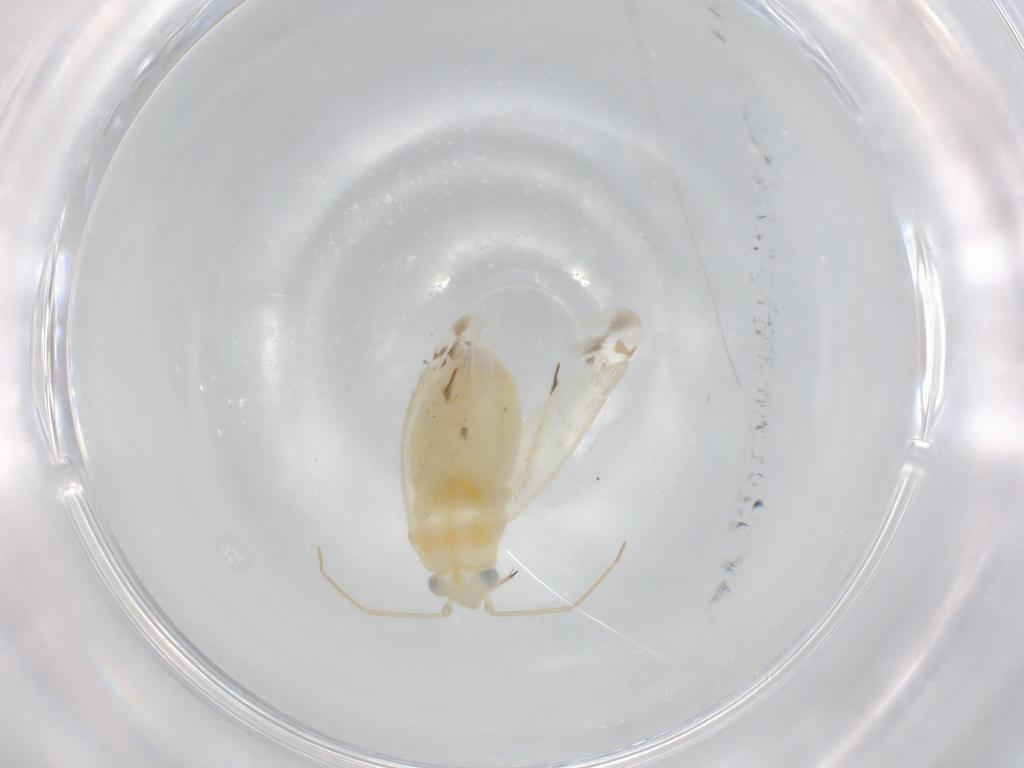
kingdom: Animalia
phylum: Arthropoda
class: Insecta
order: Hemiptera
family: Miridae
